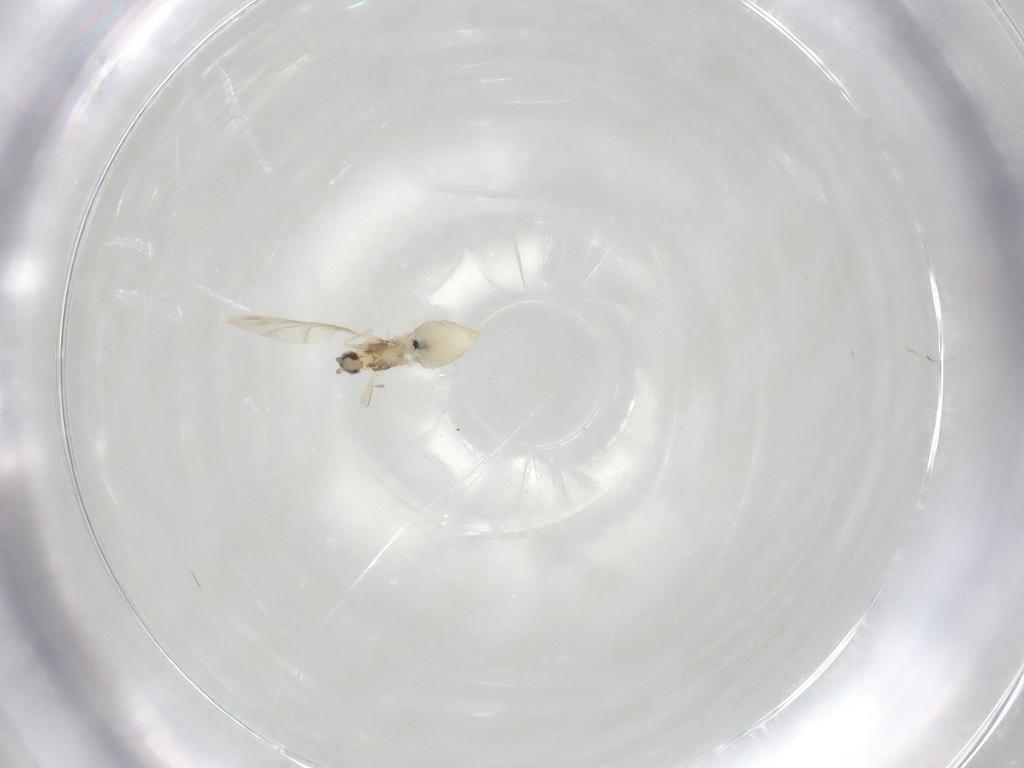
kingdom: Animalia
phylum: Arthropoda
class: Insecta
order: Diptera
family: Cecidomyiidae
